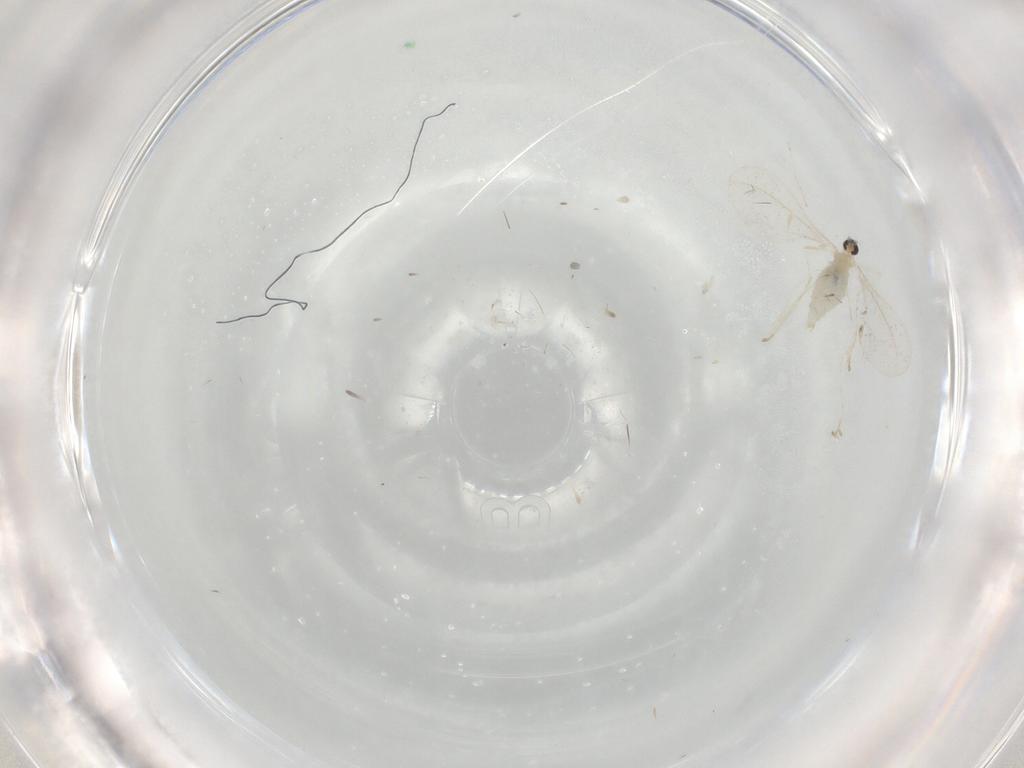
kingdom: Animalia
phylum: Arthropoda
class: Insecta
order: Diptera
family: Cecidomyiidae
